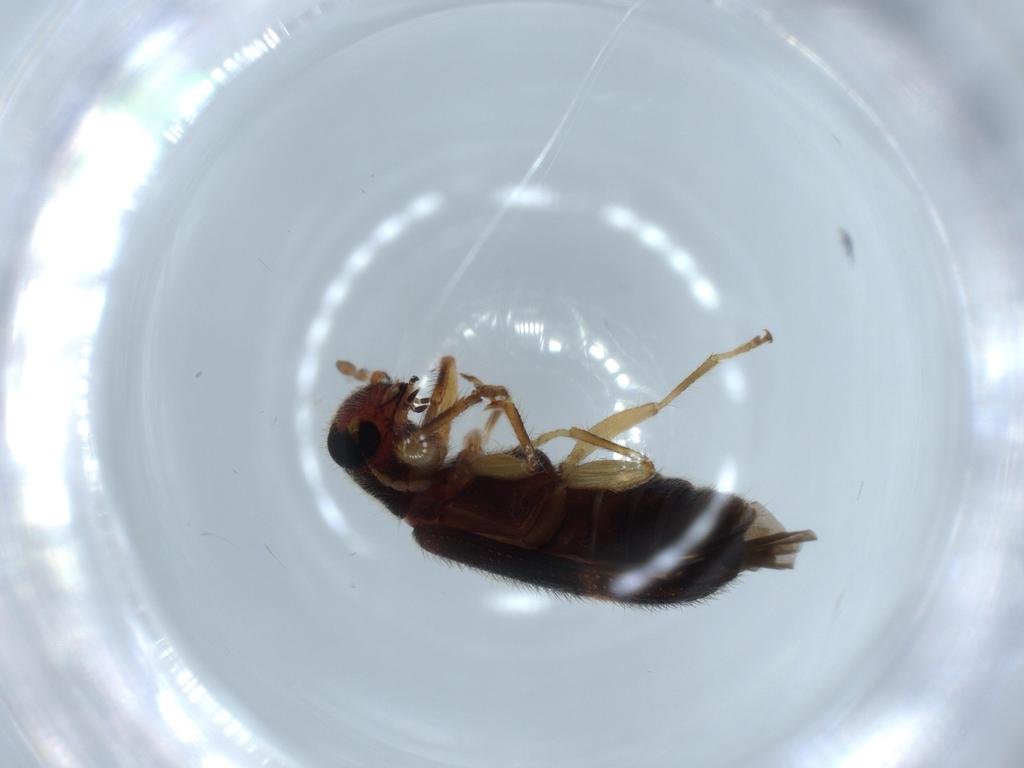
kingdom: Animalia
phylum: Arthropoda
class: Insecta
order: Coleoptera
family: Cleridae
